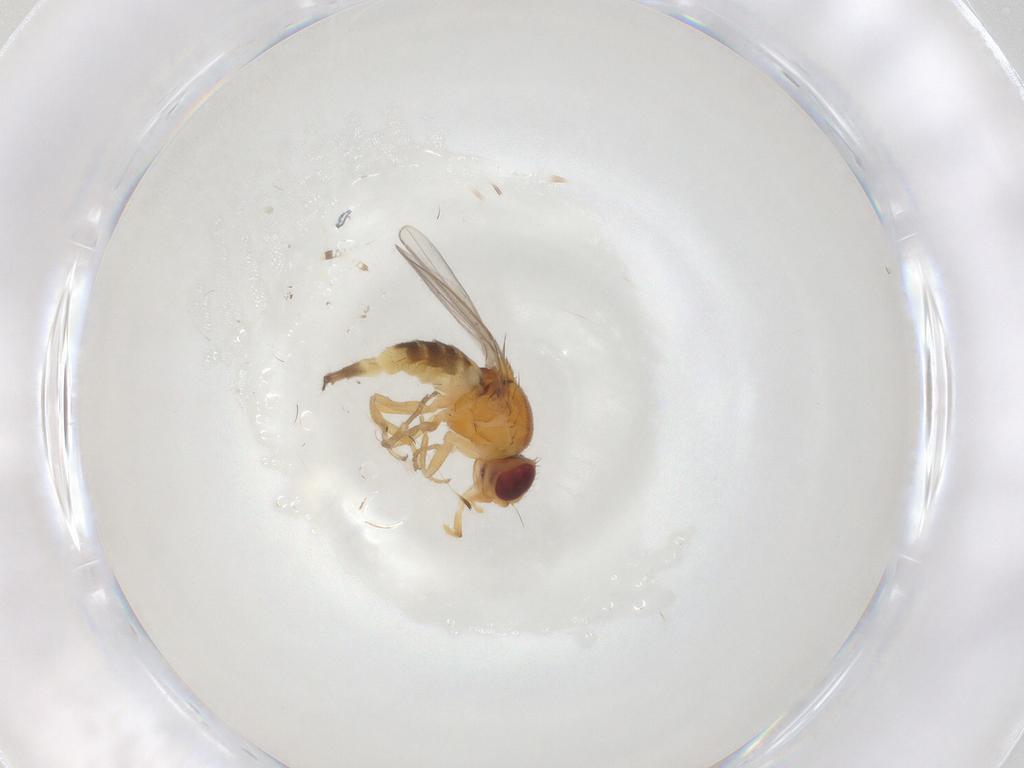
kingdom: Animalia
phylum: Arthropoda
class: Insecta
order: Diptera
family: Chloropidae
